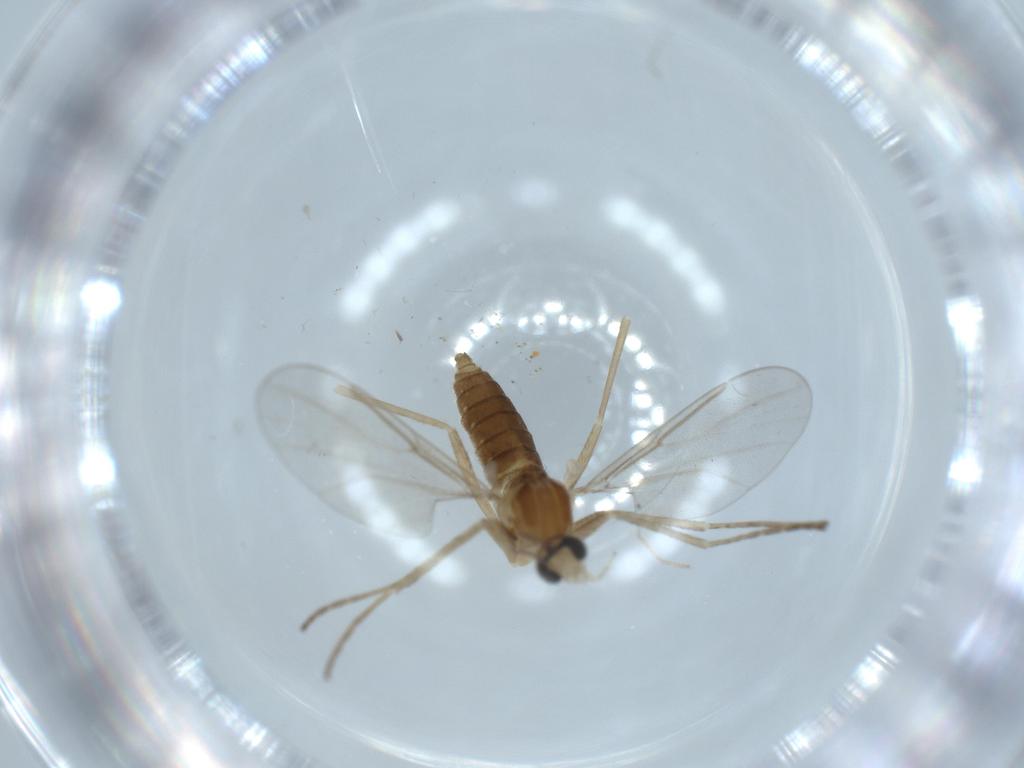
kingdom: Animalia
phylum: Arthropoda
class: Insecta
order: Diptera
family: Cecidomyiidae
